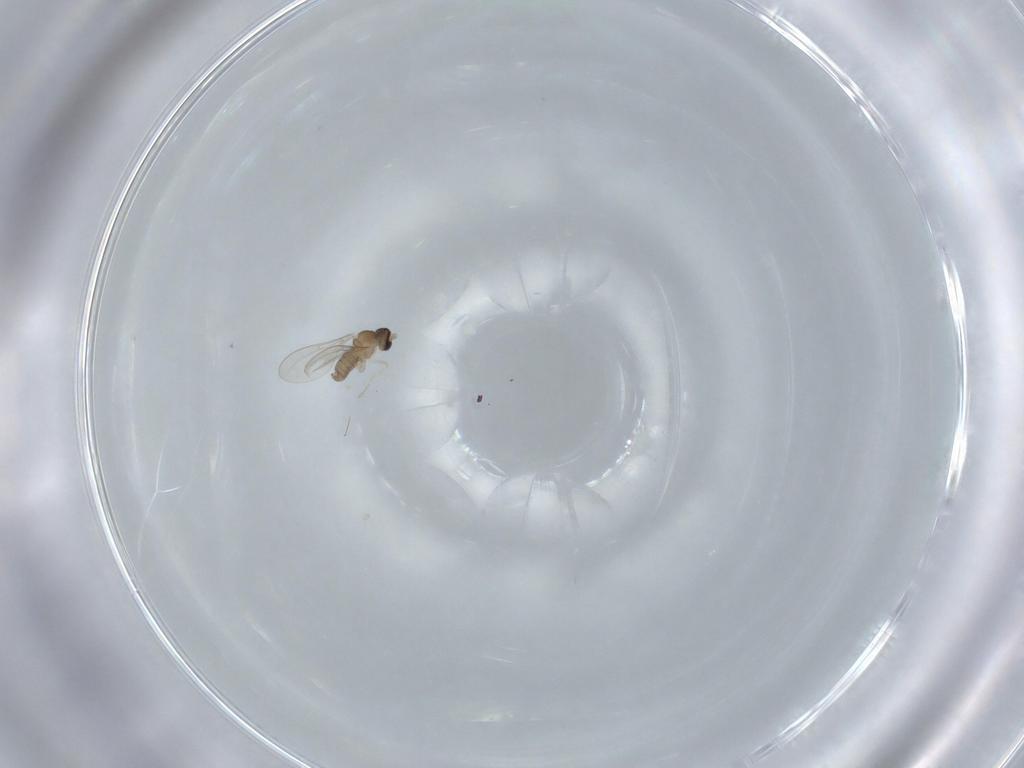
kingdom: Animalia
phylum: Arthropoda
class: Insecta
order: Diptera
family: Cecidomyiidae
